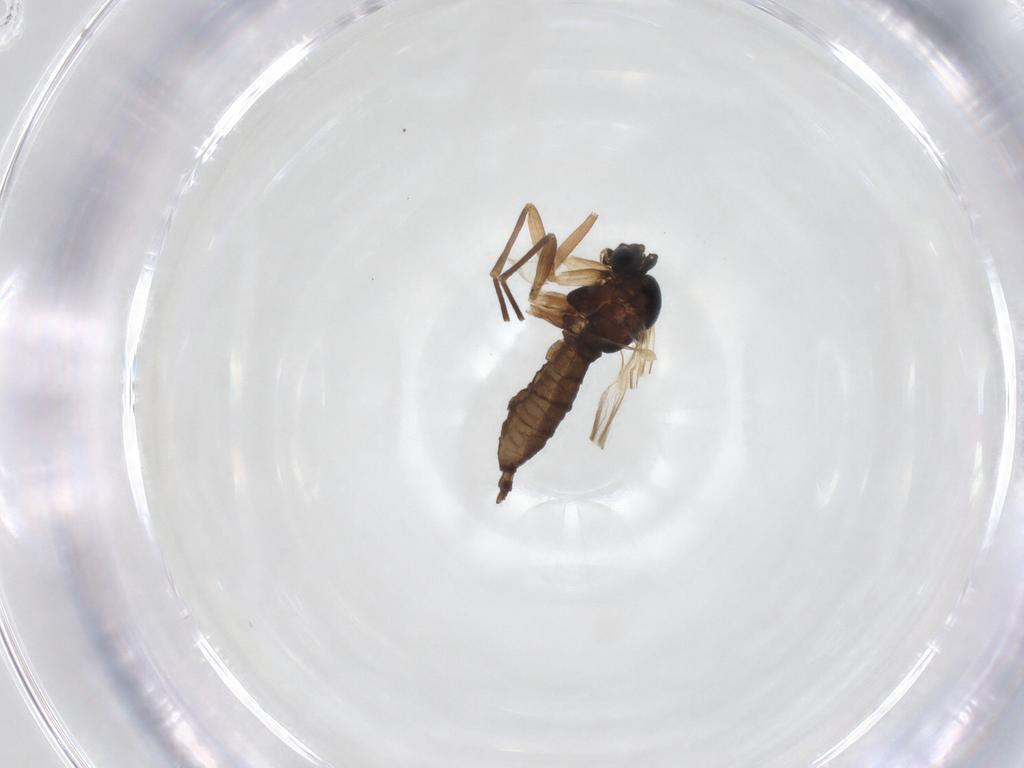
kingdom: Animalia
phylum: Arthropoda
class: Insecta
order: Diptera
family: Sciaridae
